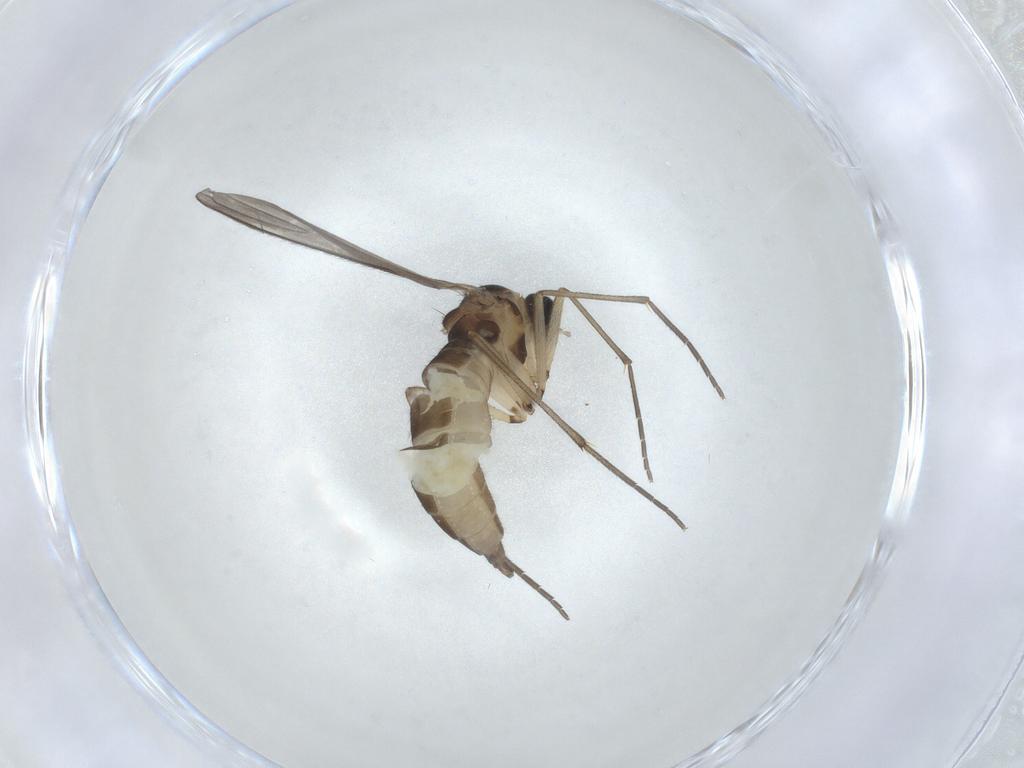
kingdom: Animalia
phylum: Arthropoda
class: Insecta
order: Diptera
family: Sciaridae
